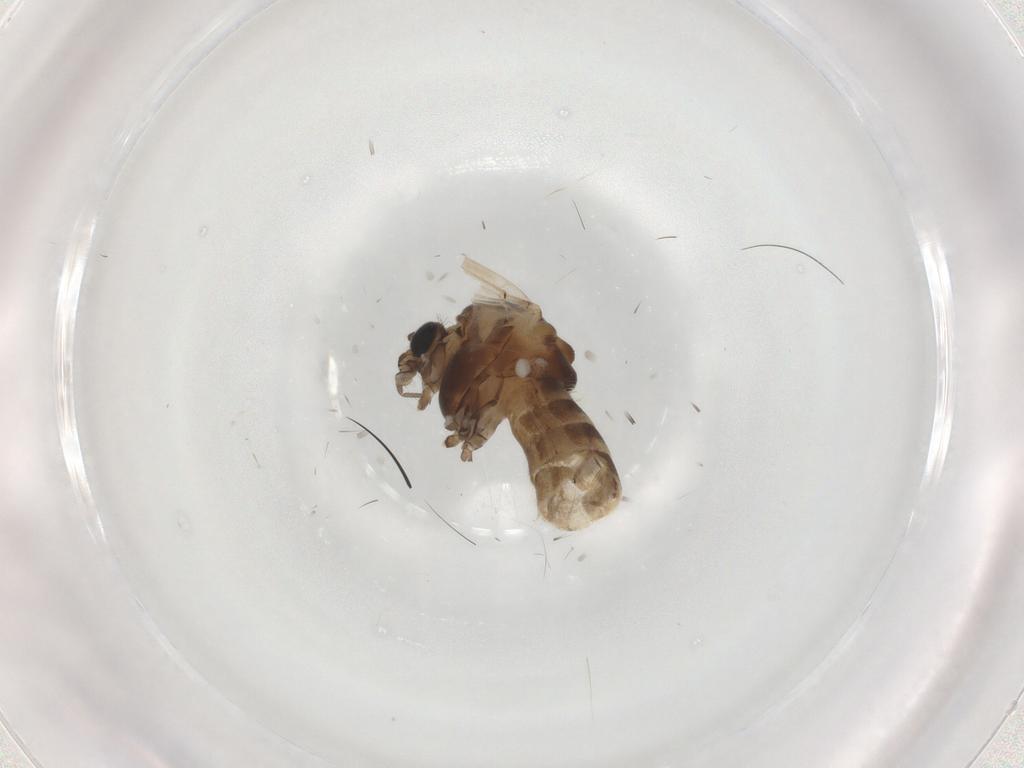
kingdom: Animalia
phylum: Arthropoda
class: Insecta
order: Diptera
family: Chironomidae
